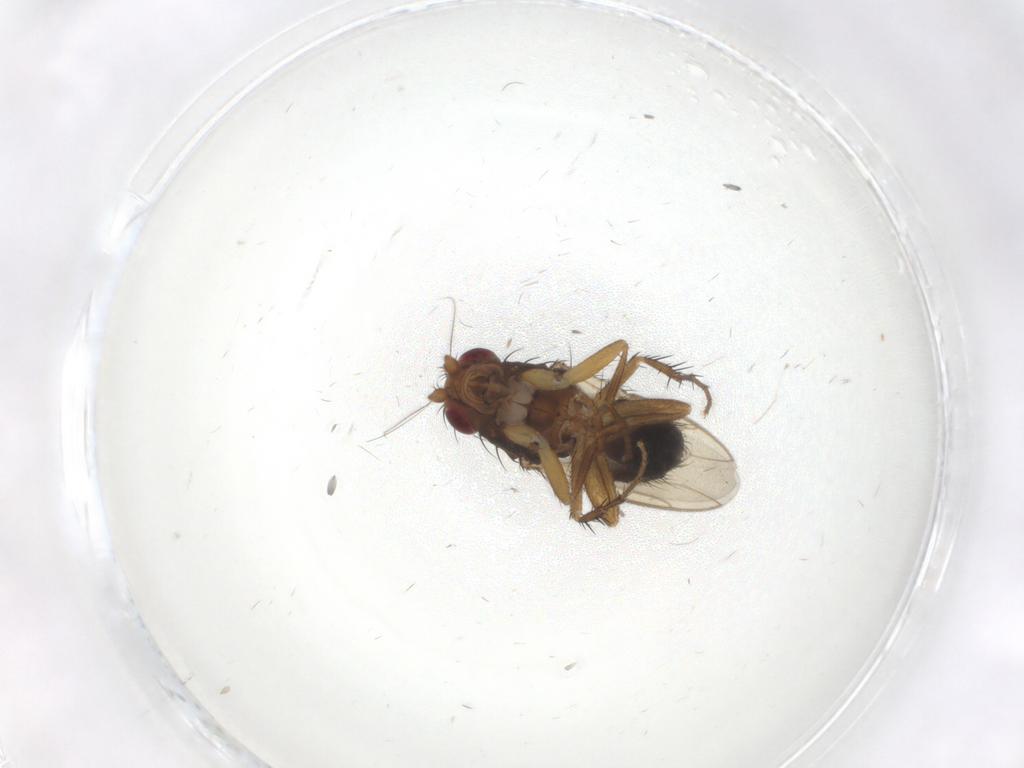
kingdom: Animalia
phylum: Arthropoda
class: Insecta
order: Diptera
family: Sphaeroceridae
